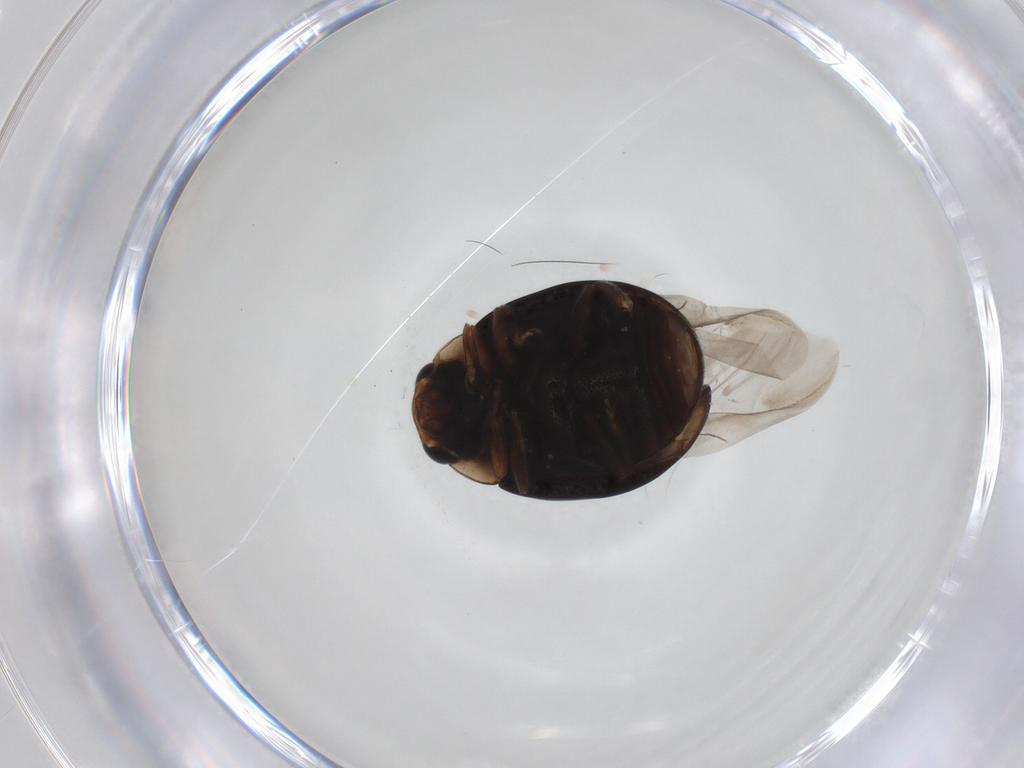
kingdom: Animalia
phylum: Arthropoda
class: Insecta
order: Coleoptera
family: Coccinellidae
